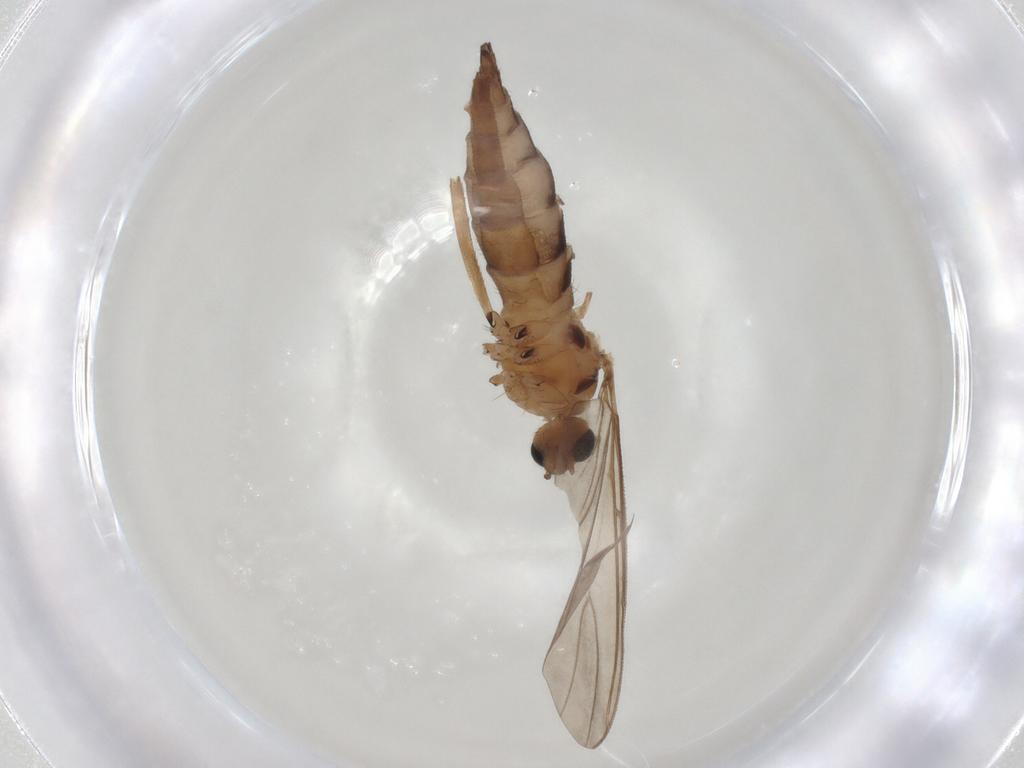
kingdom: Animalia
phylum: Arthropoda
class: Insecta
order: Diptera
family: Sciaridae
